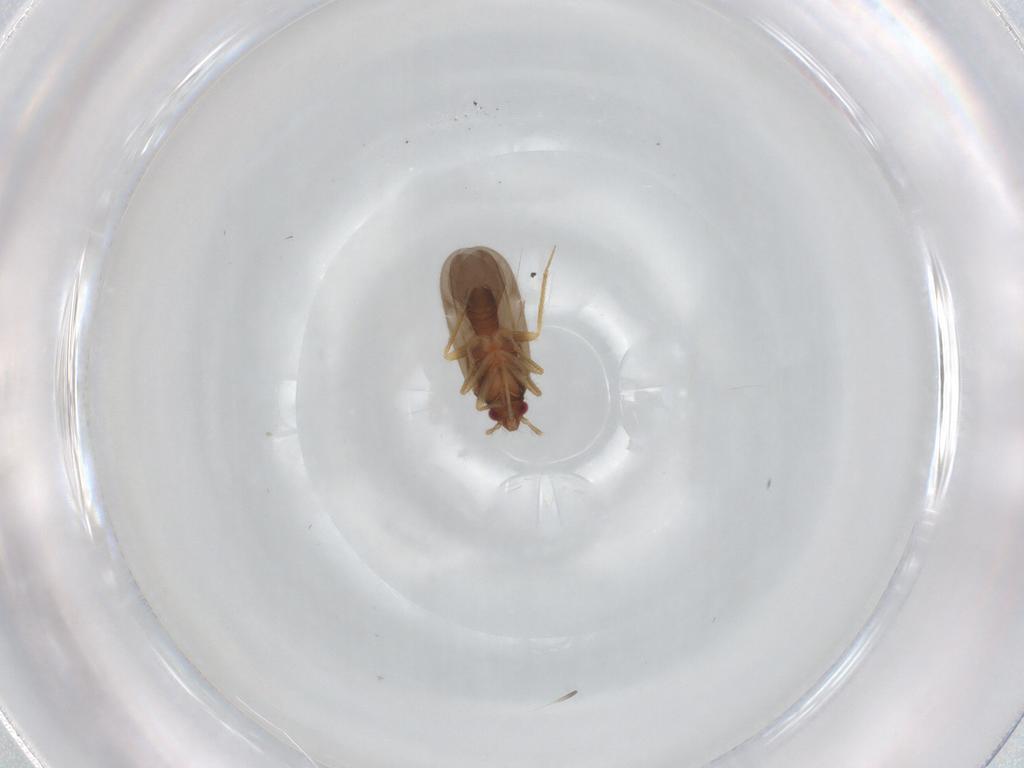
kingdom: Animalia
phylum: Arthropoda
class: Insecta
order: Hemiptera
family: Ceratocombidae
